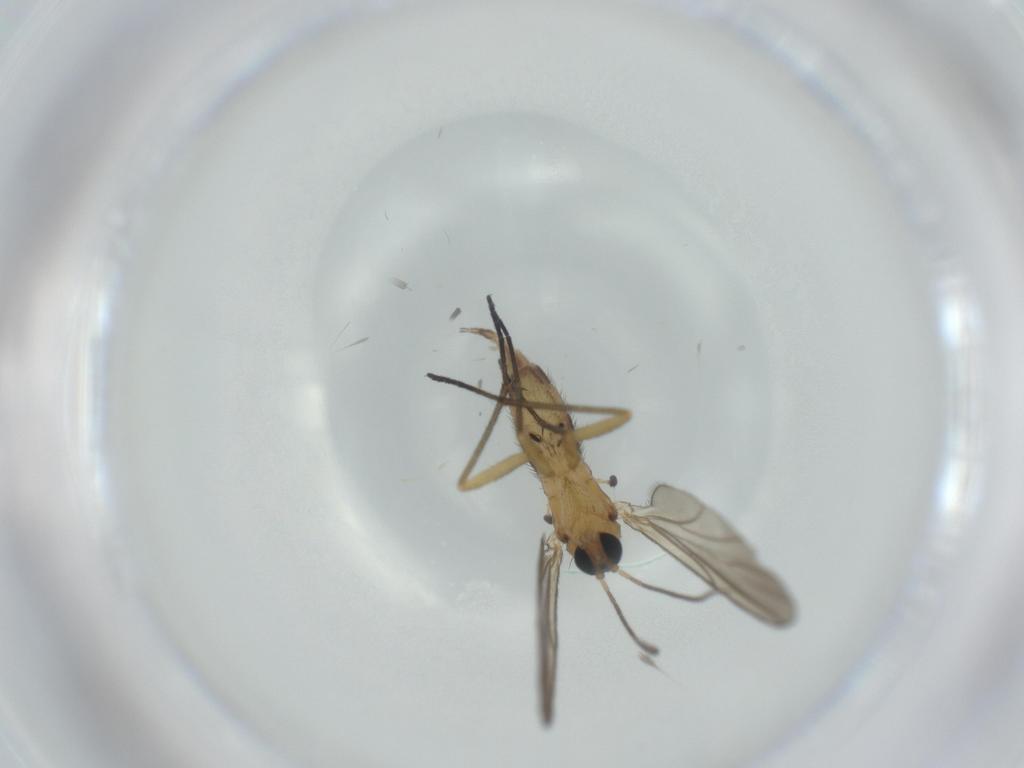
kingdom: Animalia
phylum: Arthropoda
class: Insecta
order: Diptera
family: Sciaridae
